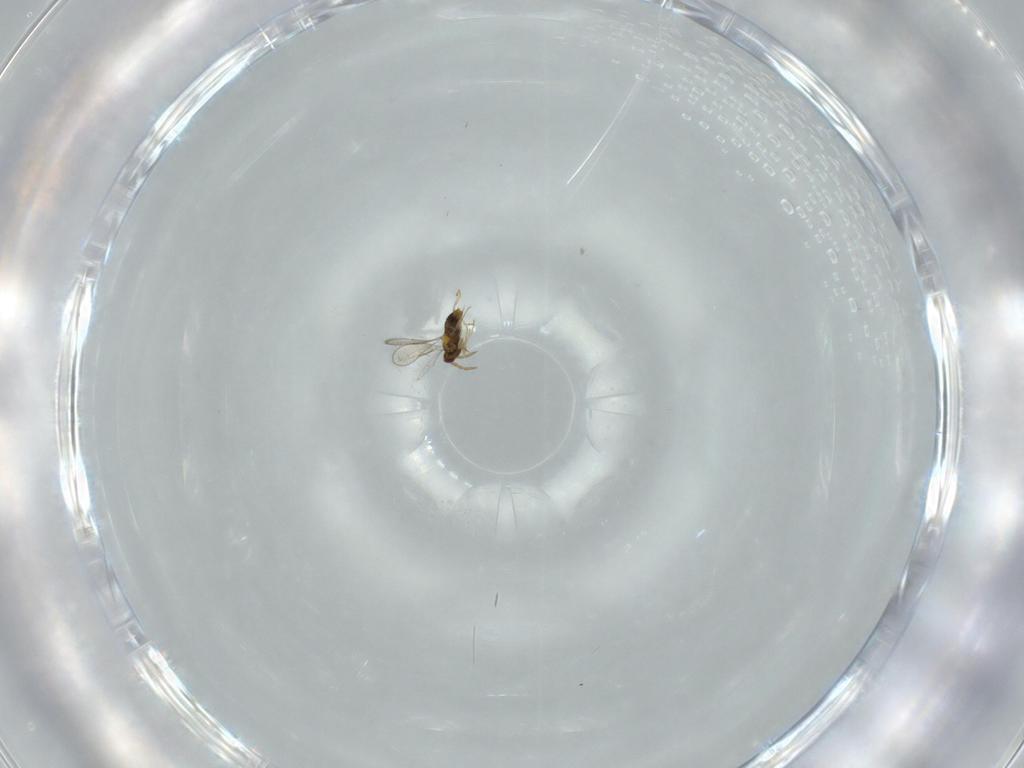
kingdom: Animalia
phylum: Arthropoda
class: Insecta
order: Hymenoptera
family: Aphelinidae
